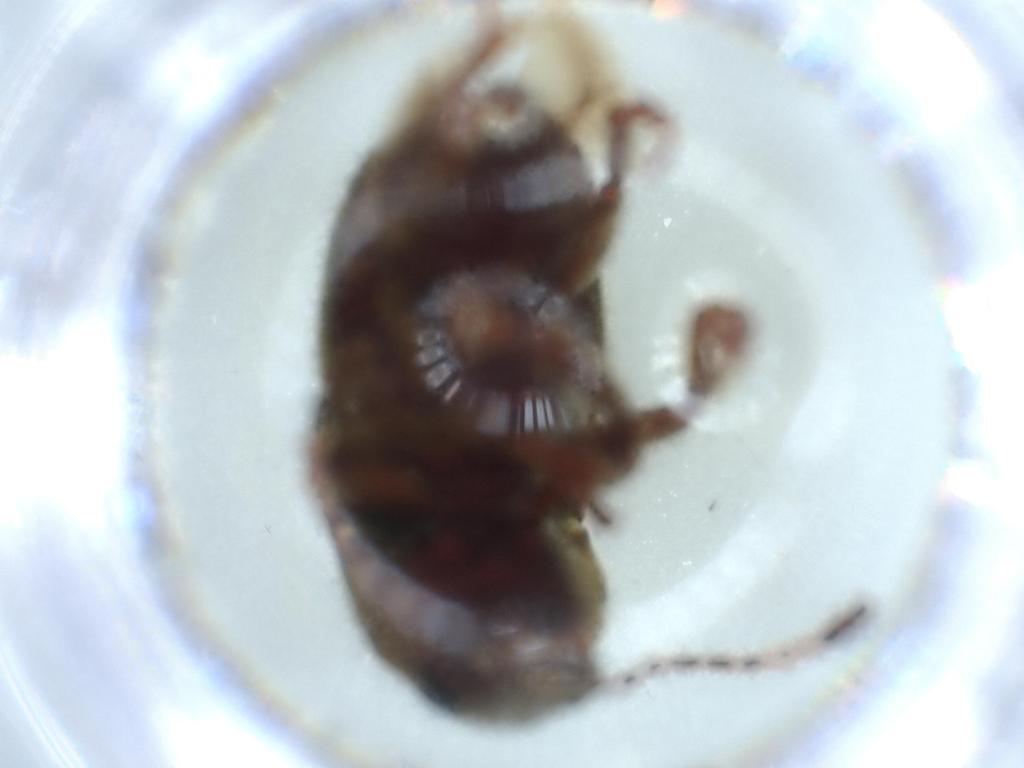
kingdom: Animalia
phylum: Arthropoda
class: Insecta
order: Coleoptera
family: Anthribidae
